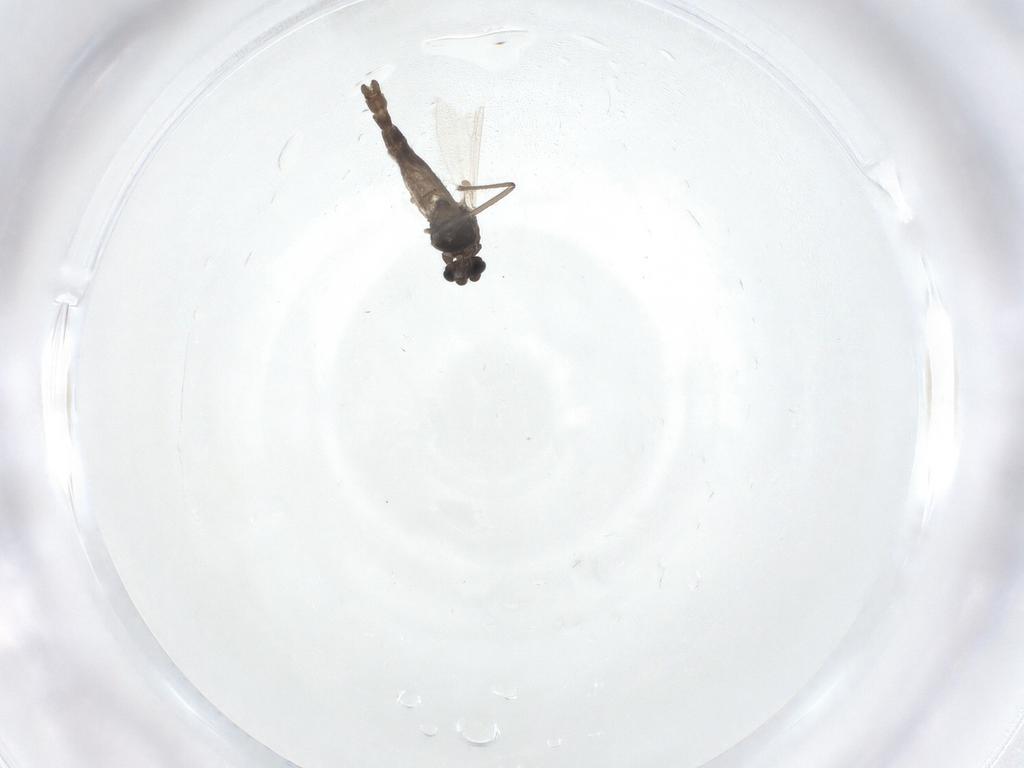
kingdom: Animalia
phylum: Arthropoda
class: Insecta
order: Diptera
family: Chironomidae
